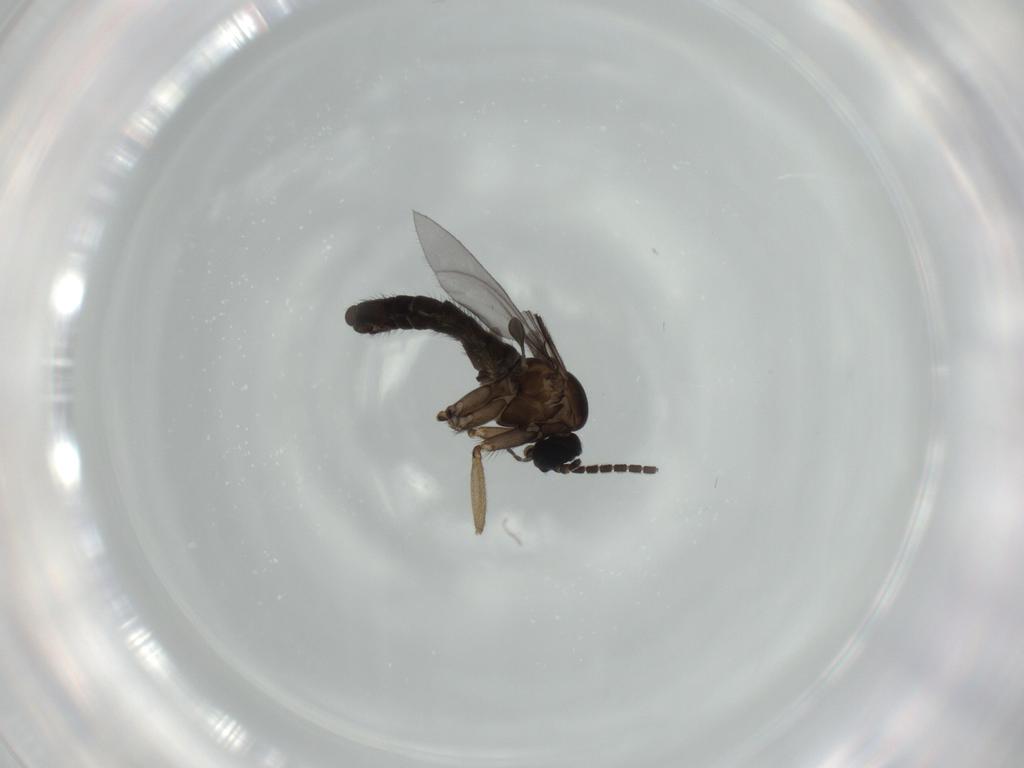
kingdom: Animalia
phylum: Arthropoda
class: Insecta
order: Diptera
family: Sciaridae
